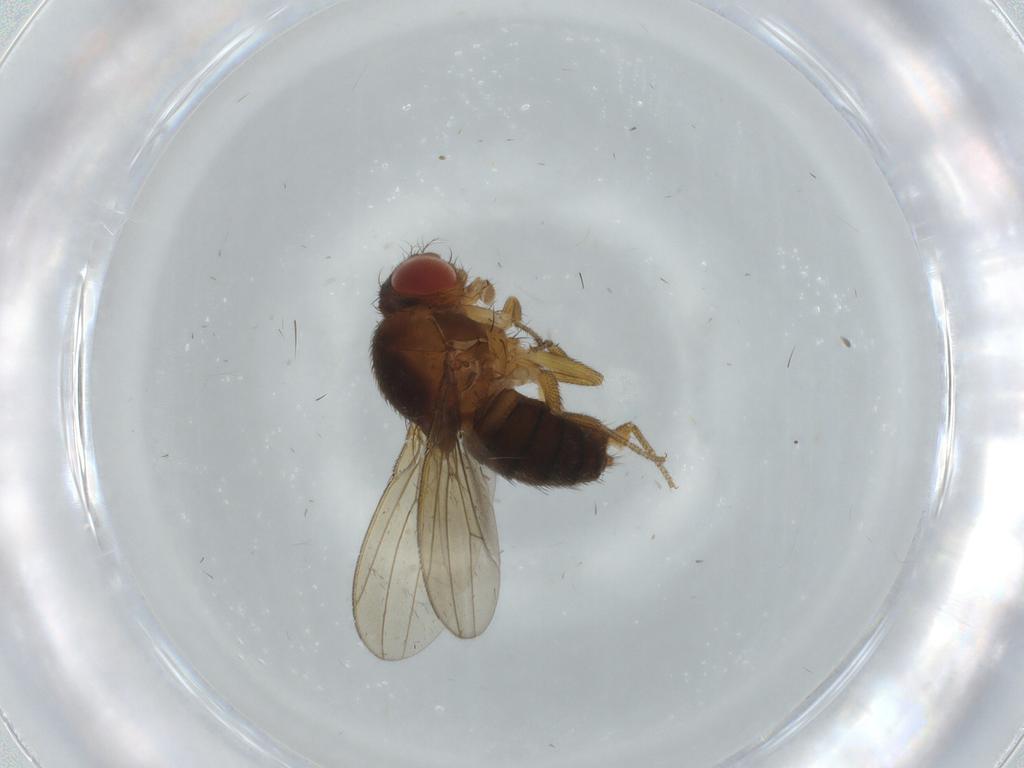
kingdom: Animalia
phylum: Arthropoda
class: Insecta
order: Diptera
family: Drosophilidae
